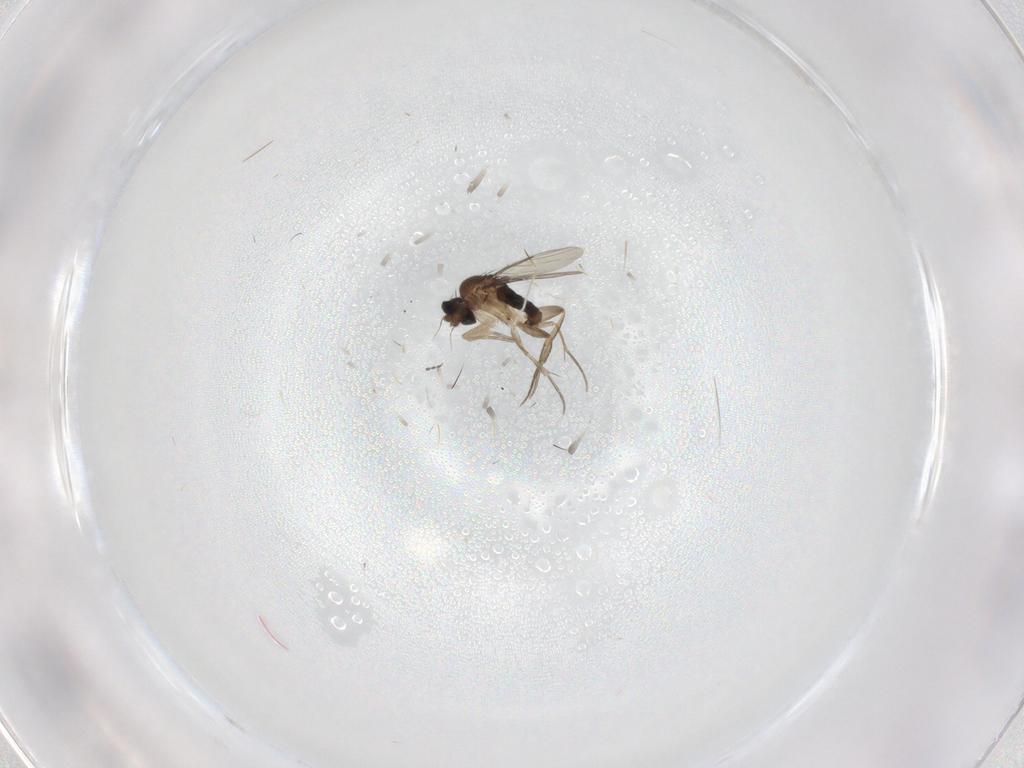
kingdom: Animalia
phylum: Arthropoda
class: Insecta
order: Diptera
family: Phoridae
